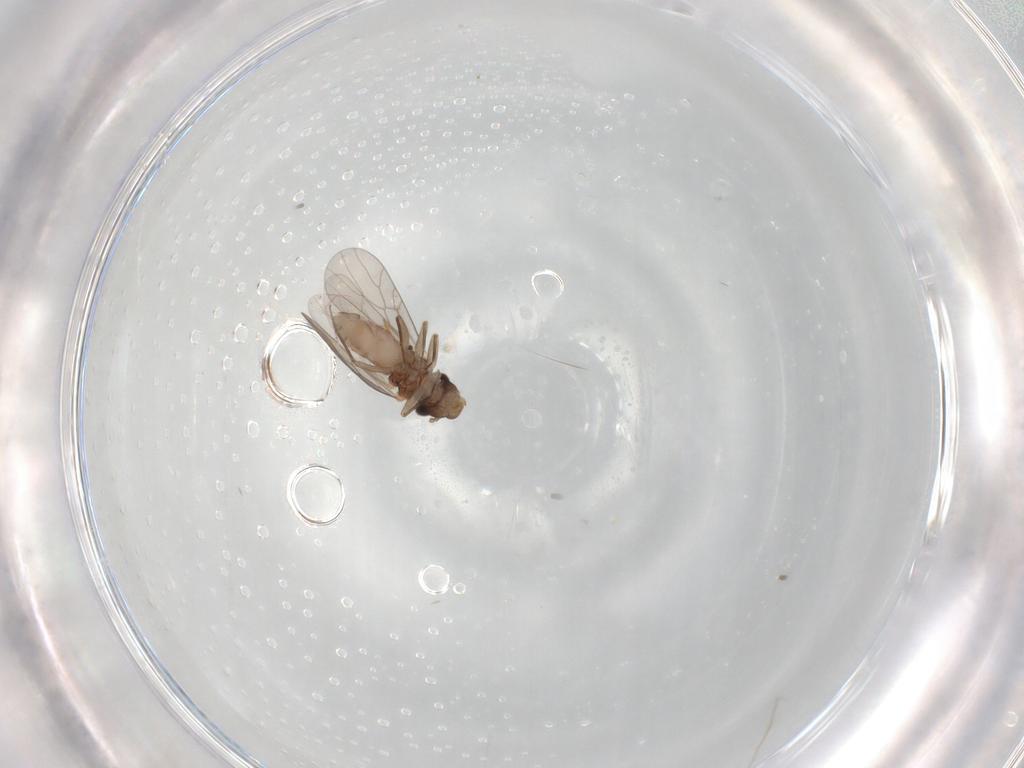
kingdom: Animalia
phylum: Arthropoda
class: Insecta
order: Psocodea
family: Lepidopsocidae
